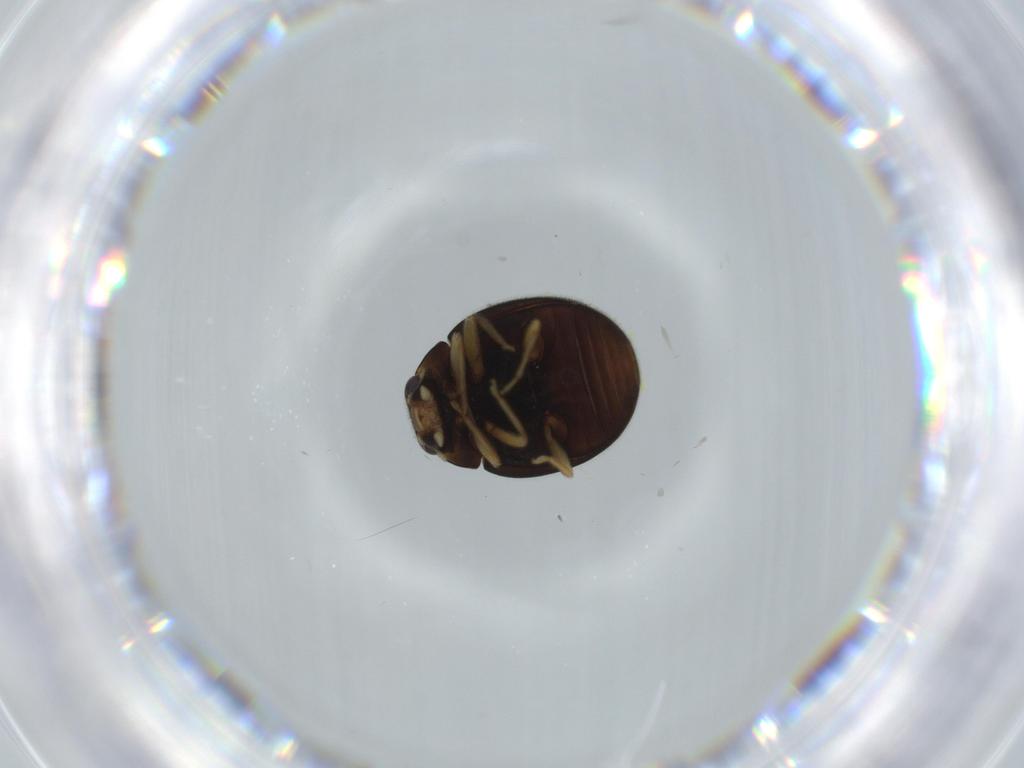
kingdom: Animalia
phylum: Arthropoda
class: Insecta
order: Coleoptera
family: Coccinellidae
